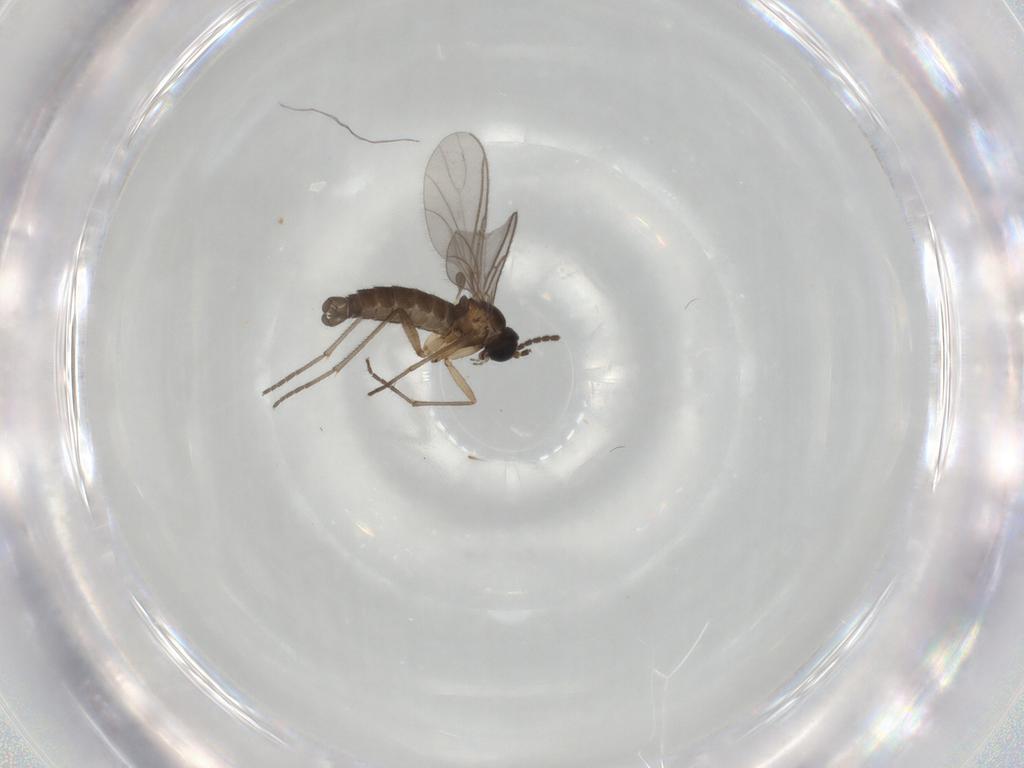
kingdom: Animalia
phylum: Arthropoda
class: Insecta
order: Diptera
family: Sciaridae
